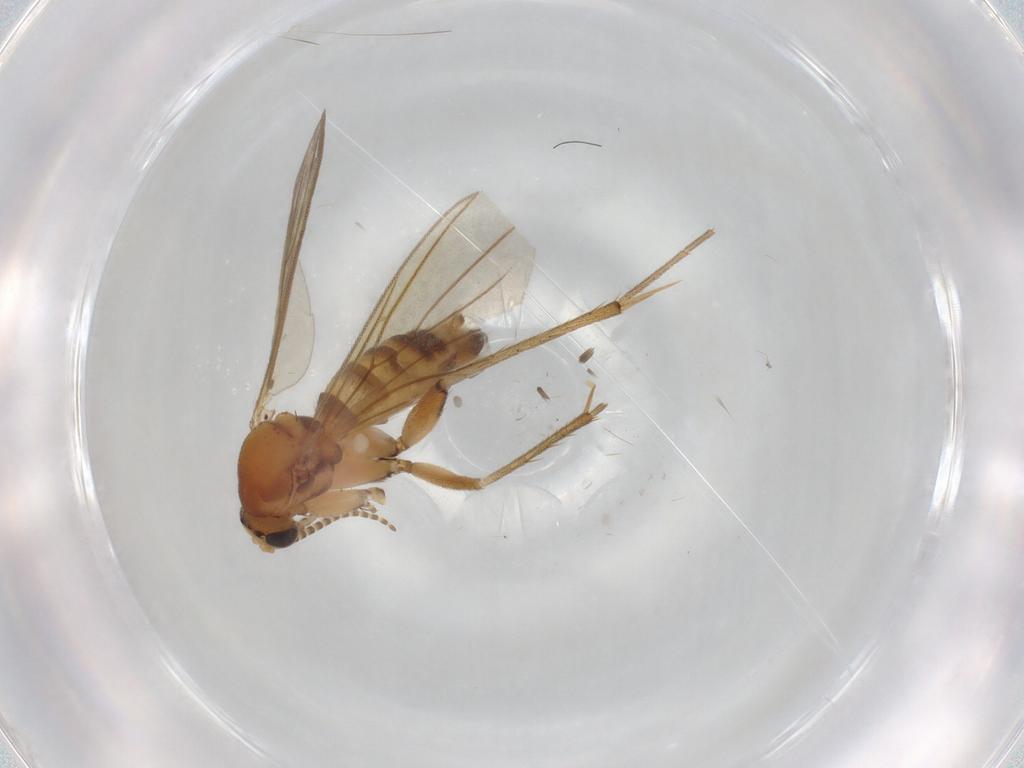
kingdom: Animalia
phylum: Arthropoda
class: Insecta
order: Diptera
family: Mycetophilidae
